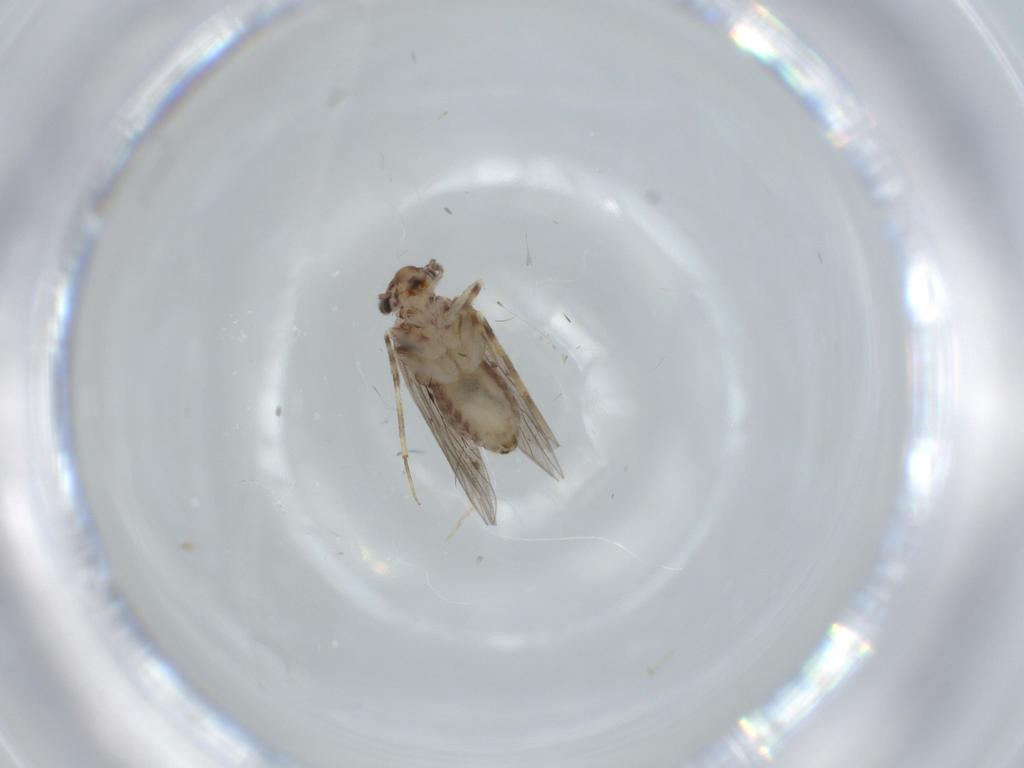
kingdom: Animalia
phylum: Arthropoda
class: Insecta
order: Psocodea
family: Lepidopsocidae
